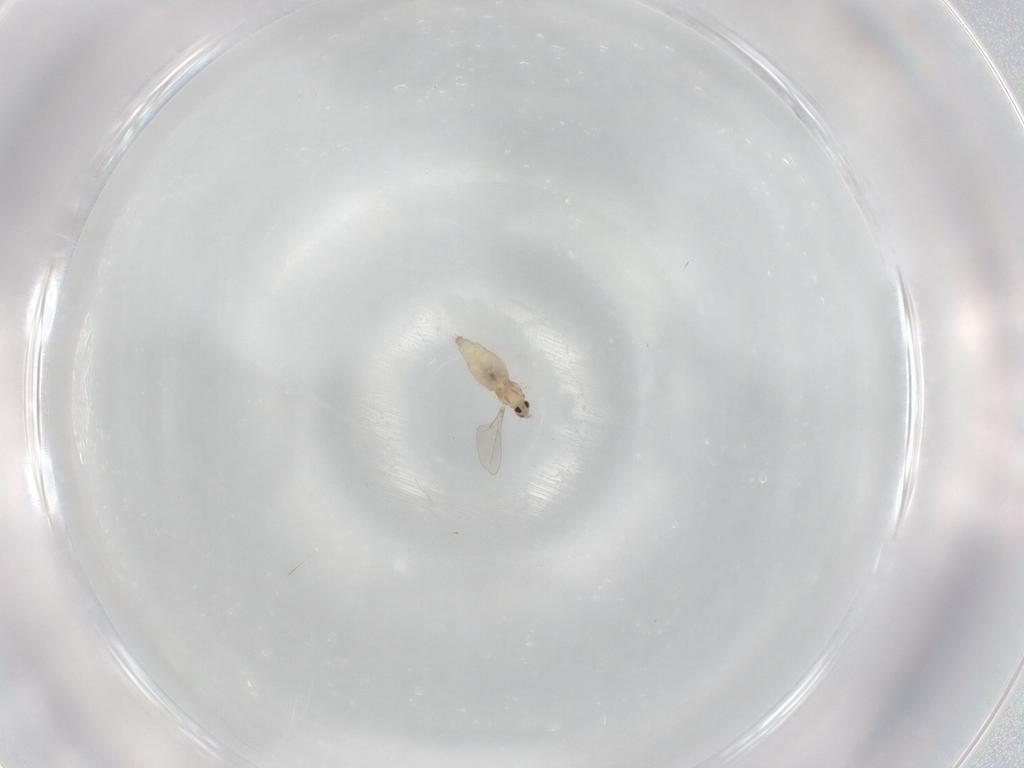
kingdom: Animalia
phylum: Arthropoda
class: Insecta
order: Diptera
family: Cecidomyiidae
